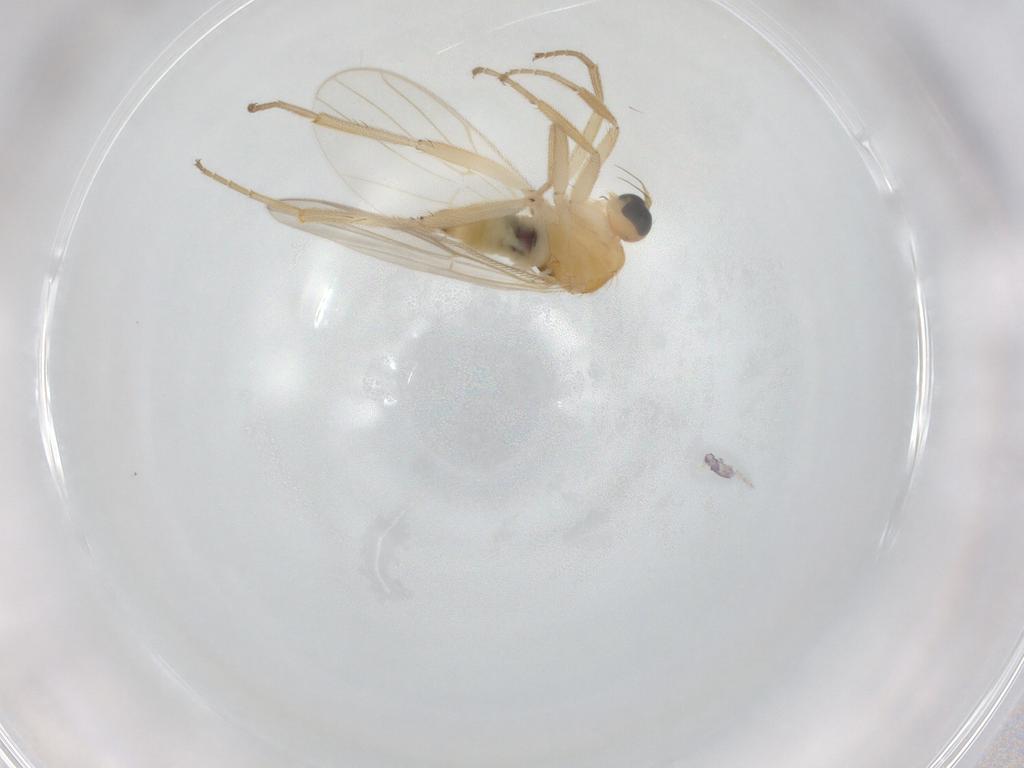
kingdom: Animalia
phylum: Arthropoda
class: Insecta
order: Diptera
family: Hybotidae
